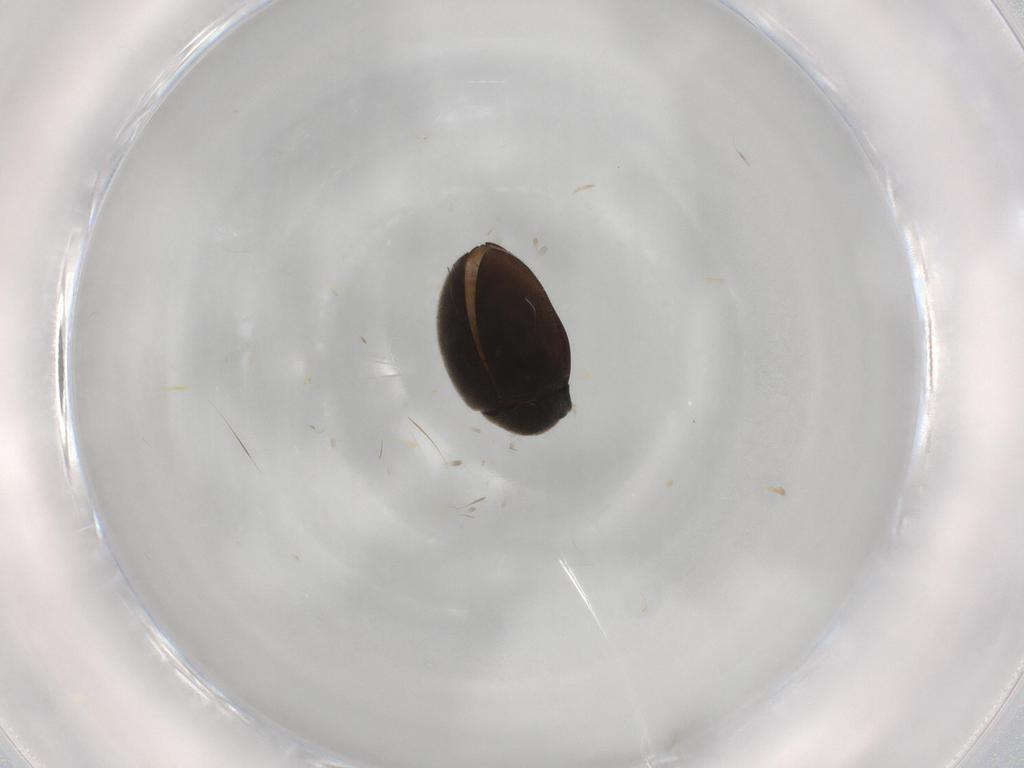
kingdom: Animalia
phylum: Arthropoda
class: Insecta
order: Coleoptera
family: Limnichidae
